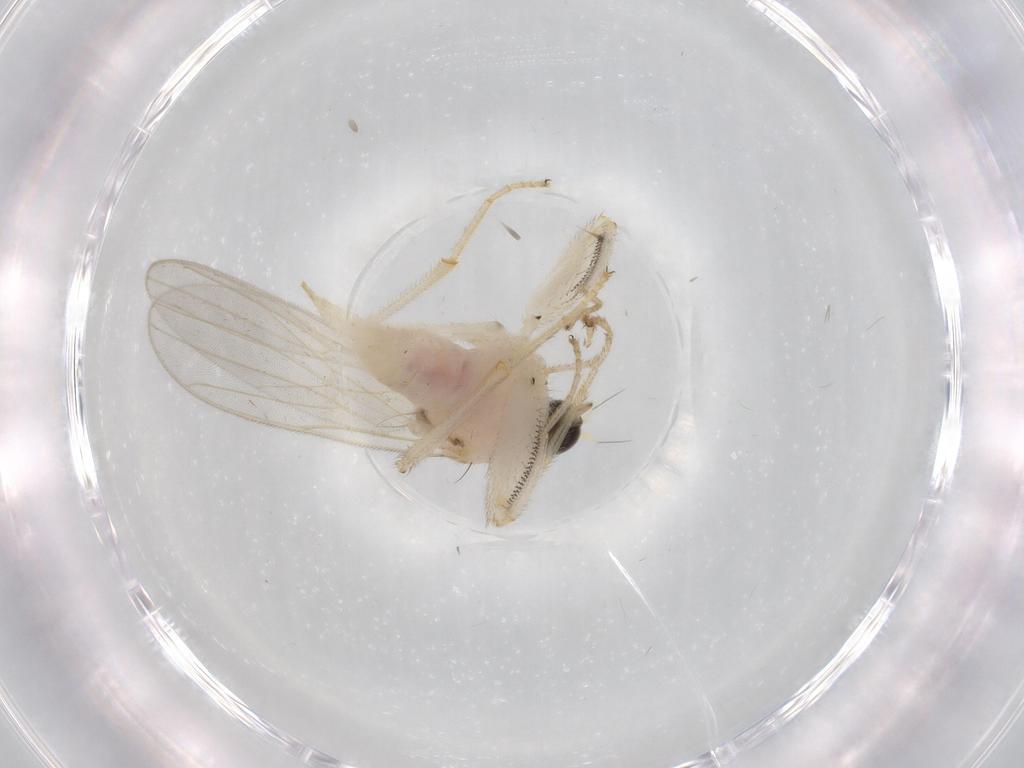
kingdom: Animalia
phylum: Arthropoda
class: Insecta
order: Diptera
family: Hybotidae
